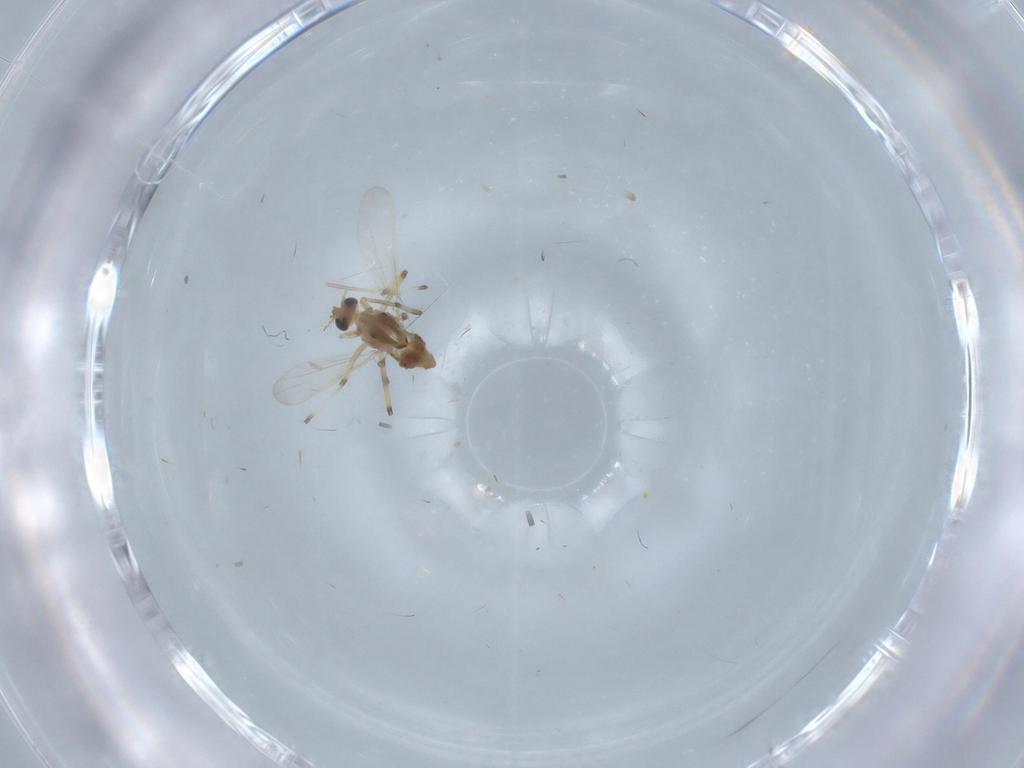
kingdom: Animalia
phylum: Arthropoda
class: Insecta
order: Diptera
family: Chironomidae
